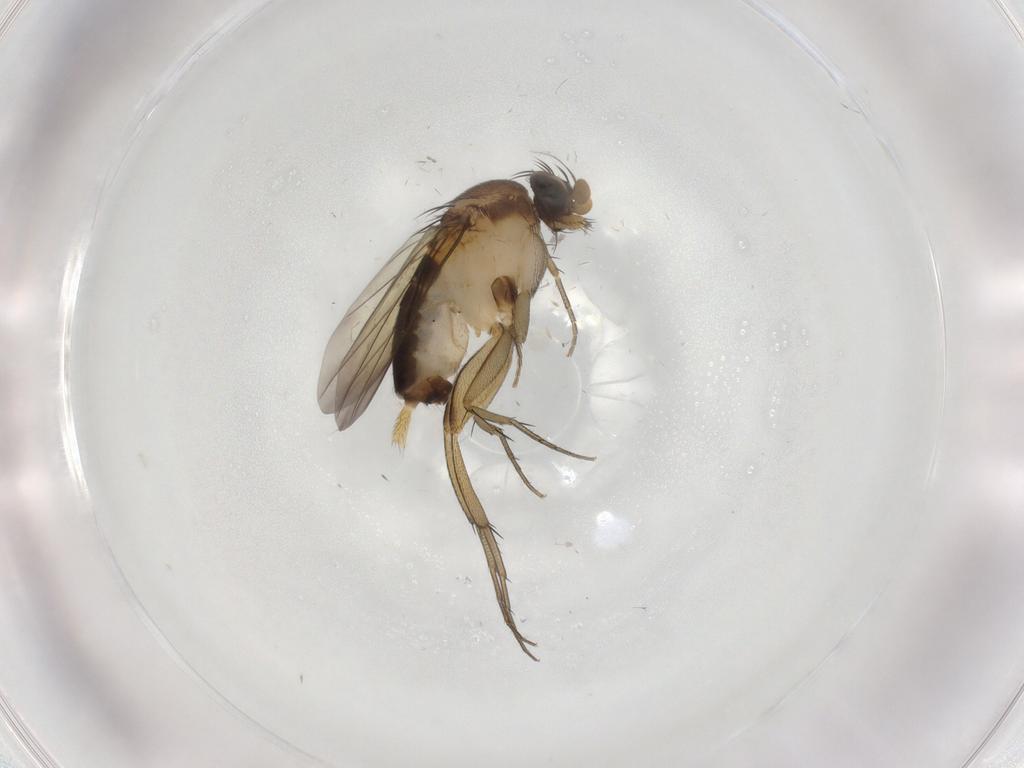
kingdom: Animalia
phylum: Arthropoda
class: Insecta
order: Diptera
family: Phoridae
